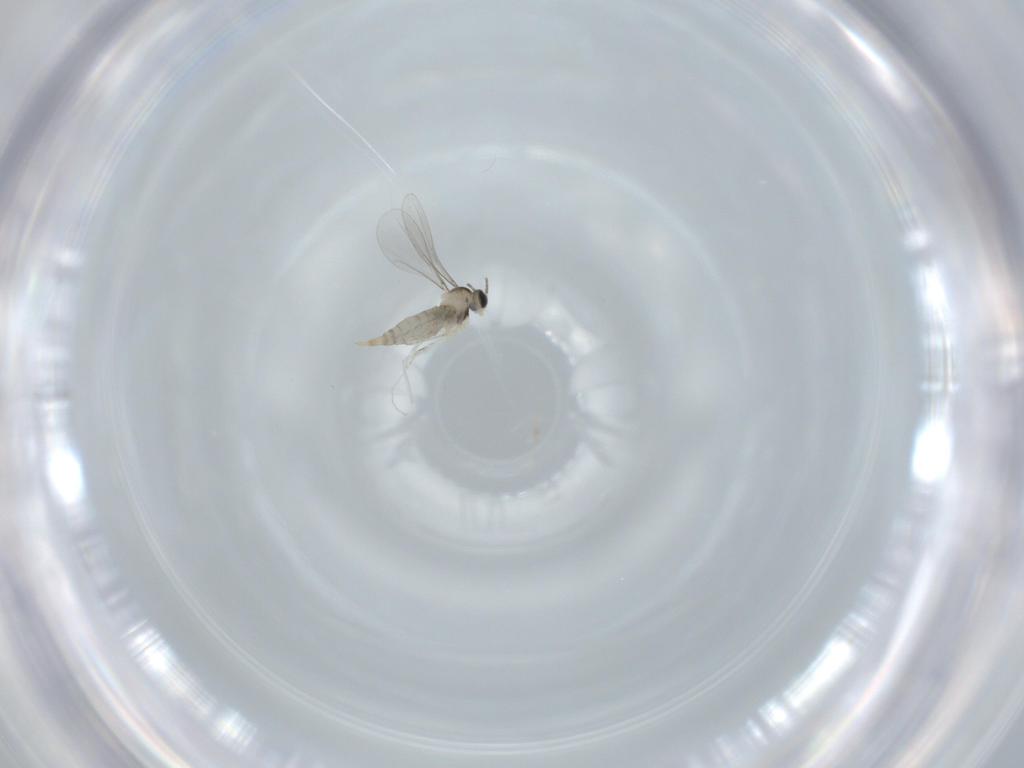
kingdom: Animalia
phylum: Arthropoda
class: Insecta
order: Diptera
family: Cecidomyiidae
